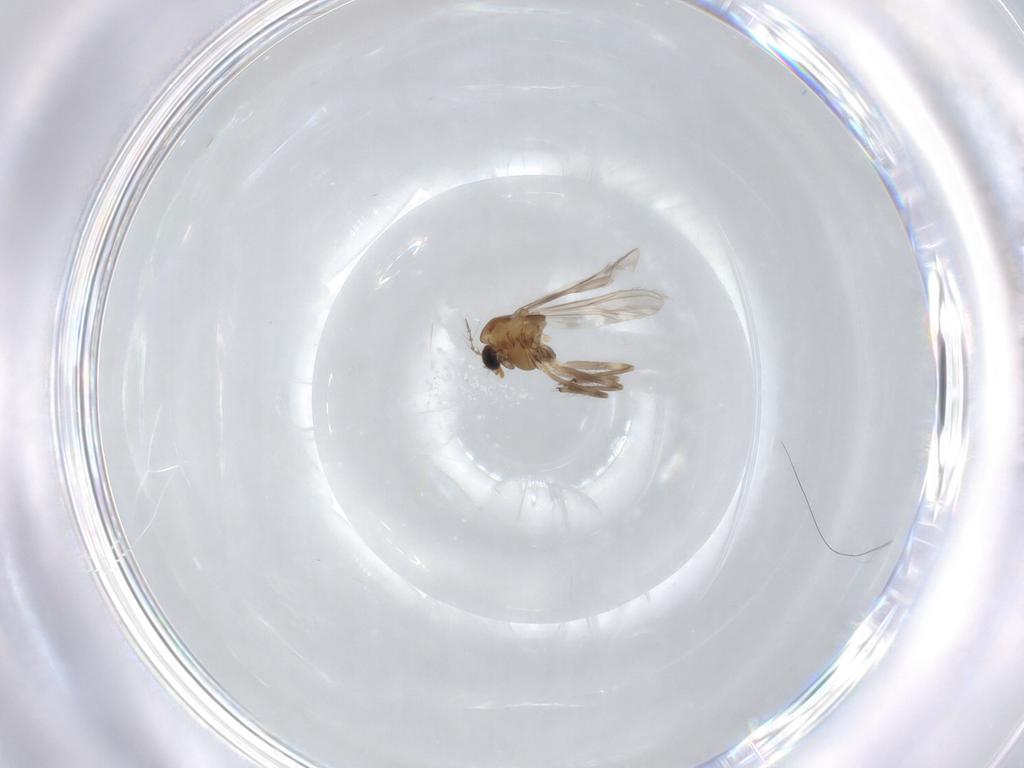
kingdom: Animalia
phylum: Arthropoda
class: Insecta
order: Diptera
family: Chironomidae
